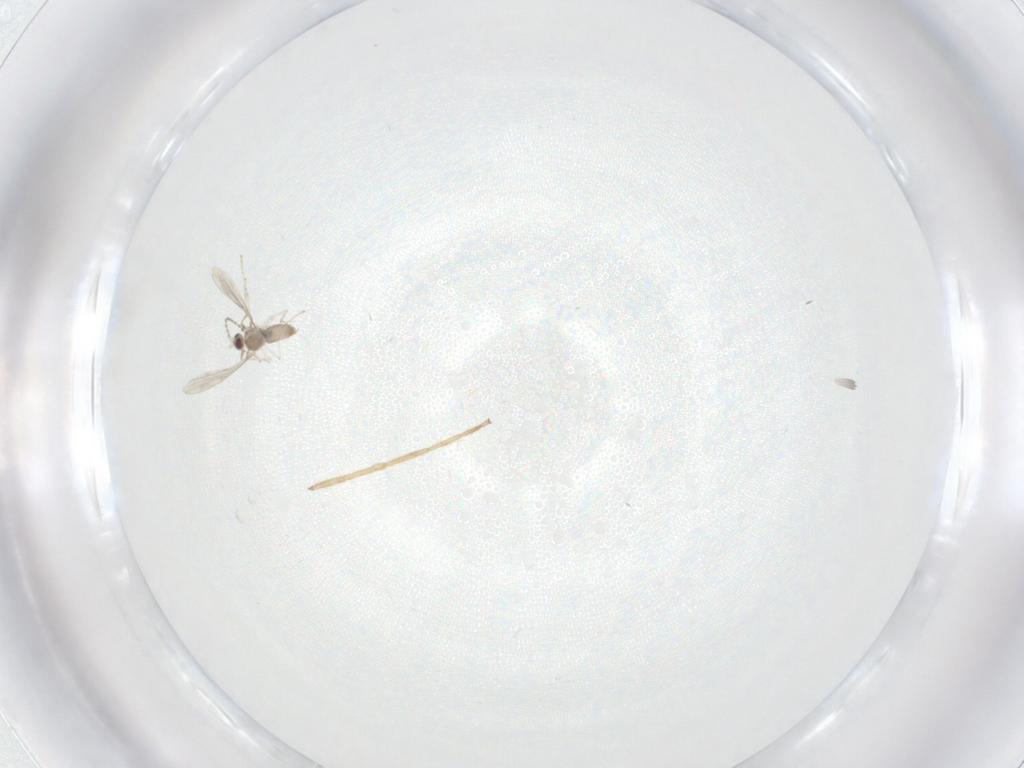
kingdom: Animalia
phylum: Arthropoda
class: Insecta
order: Diptera
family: Cecidomyiidae
